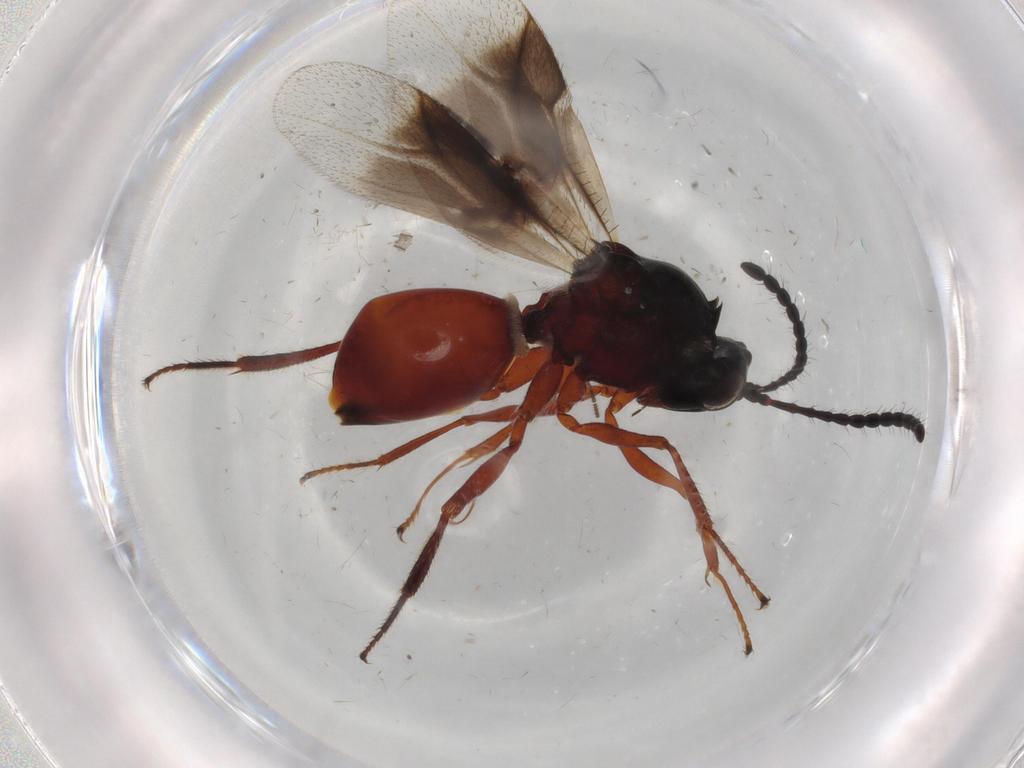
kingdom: Animalia
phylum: Arthropoda
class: Insecta
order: Hymenoptera
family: Figitidae
